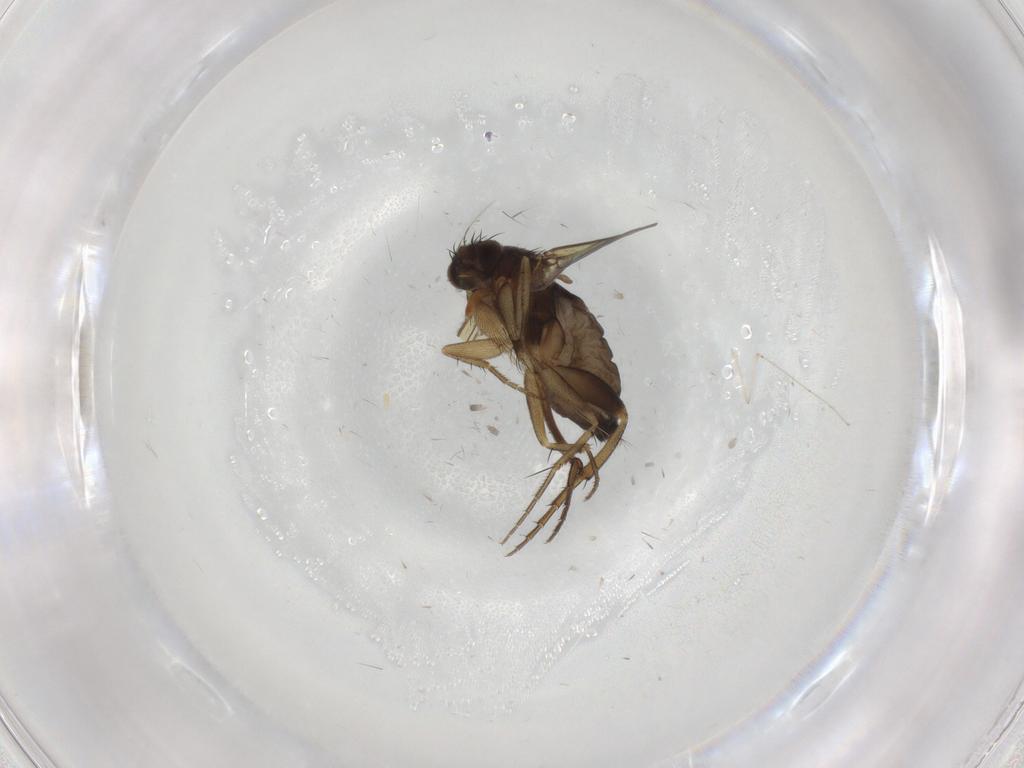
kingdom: Animalia
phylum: Arthropoda
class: Insecta
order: Diptera
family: Phoridae
